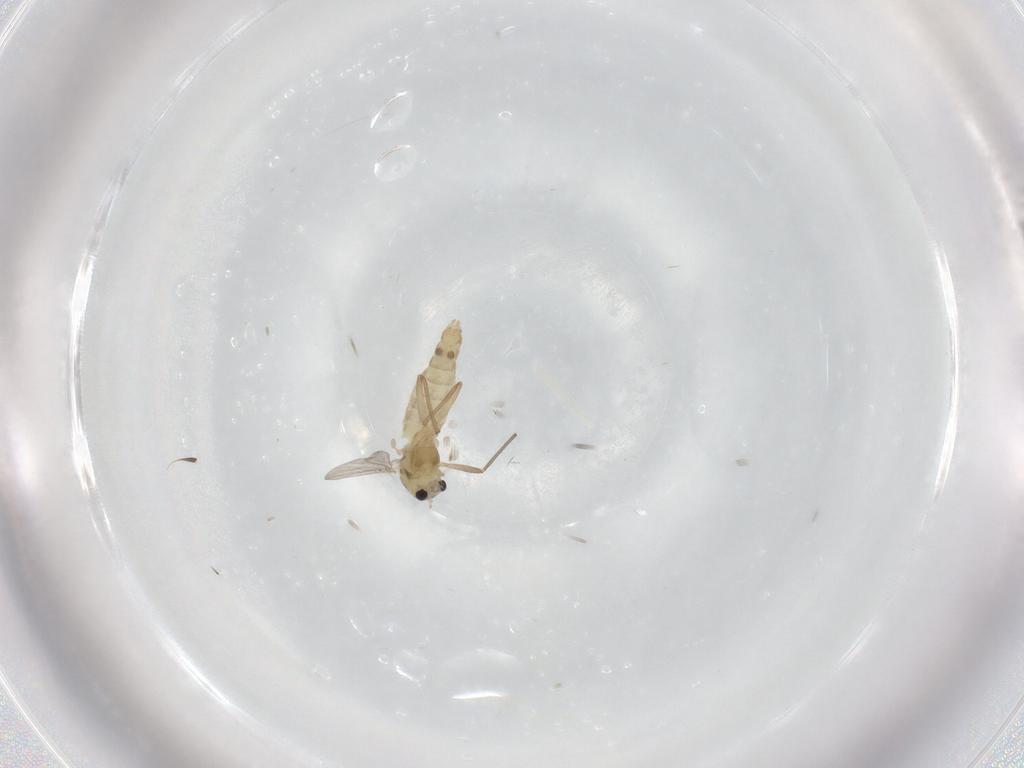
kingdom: Animalia
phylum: Arthropoda
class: Insecta
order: Diptera
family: Chironomidae
